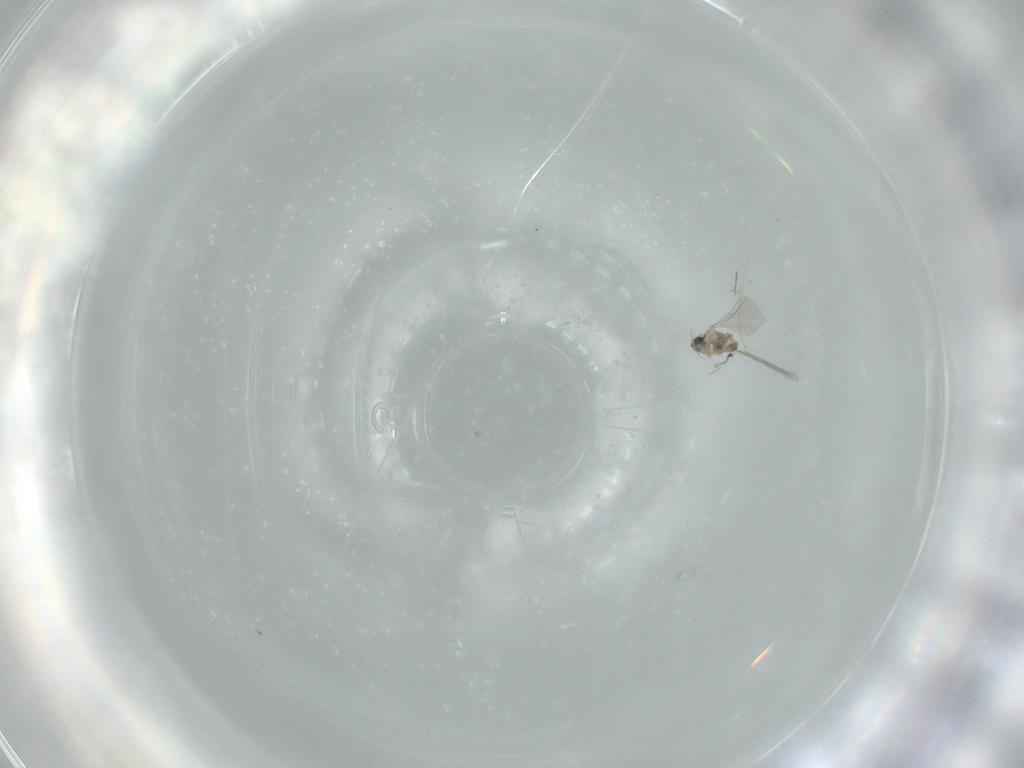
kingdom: Animalia
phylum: Arthropoda
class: Insecta
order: Diptera
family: Cecidomyiidae
